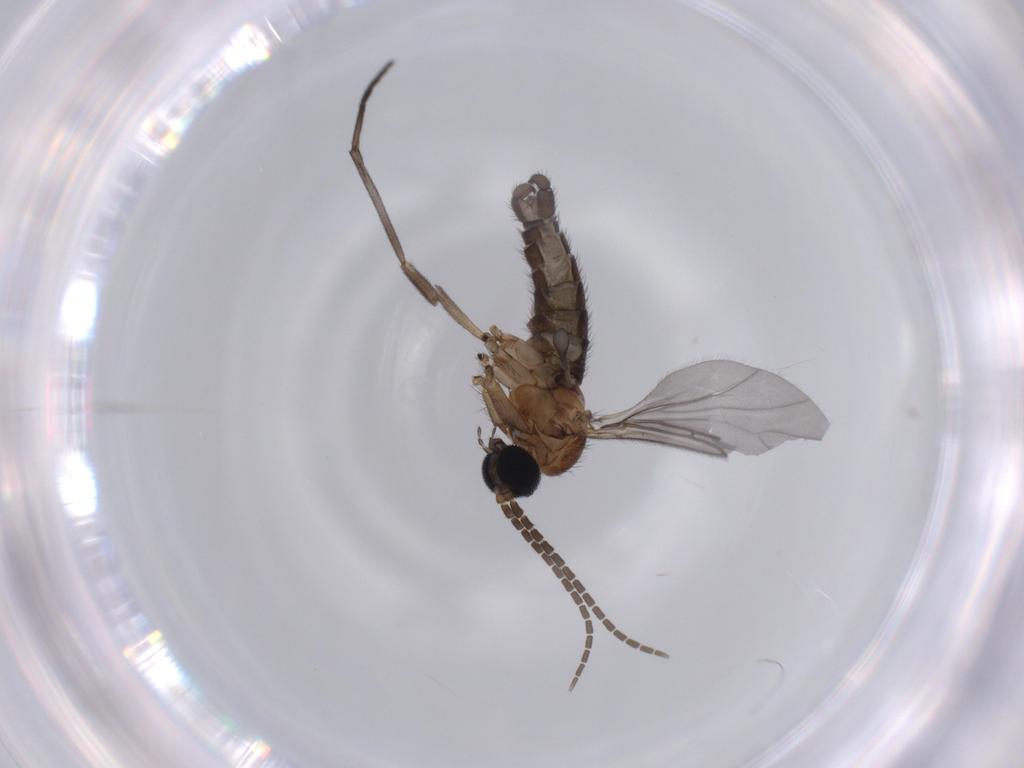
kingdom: Animalia
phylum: Arthropoda
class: Insecta
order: Diptera
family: Sciaridae
